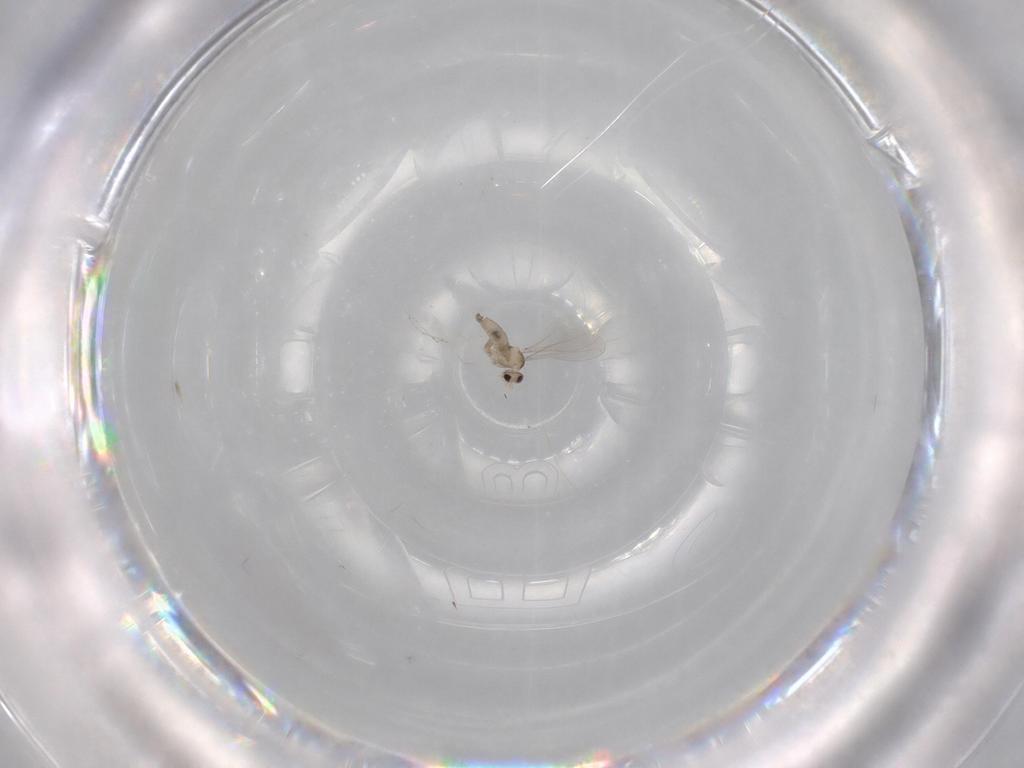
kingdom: Animalia
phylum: Arthropoda
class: Insecta
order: Diptera
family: Cecidomyiidae
